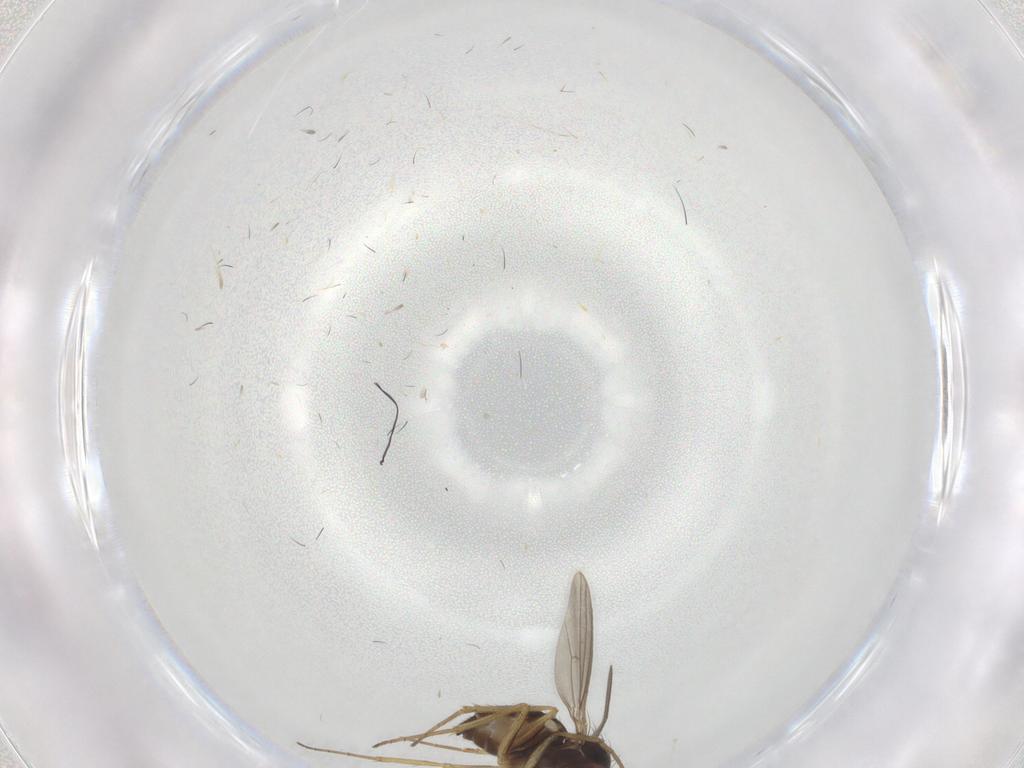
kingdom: Animalia
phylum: Arthropoda
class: Insecta
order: Diptera
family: Dolichopodidae
